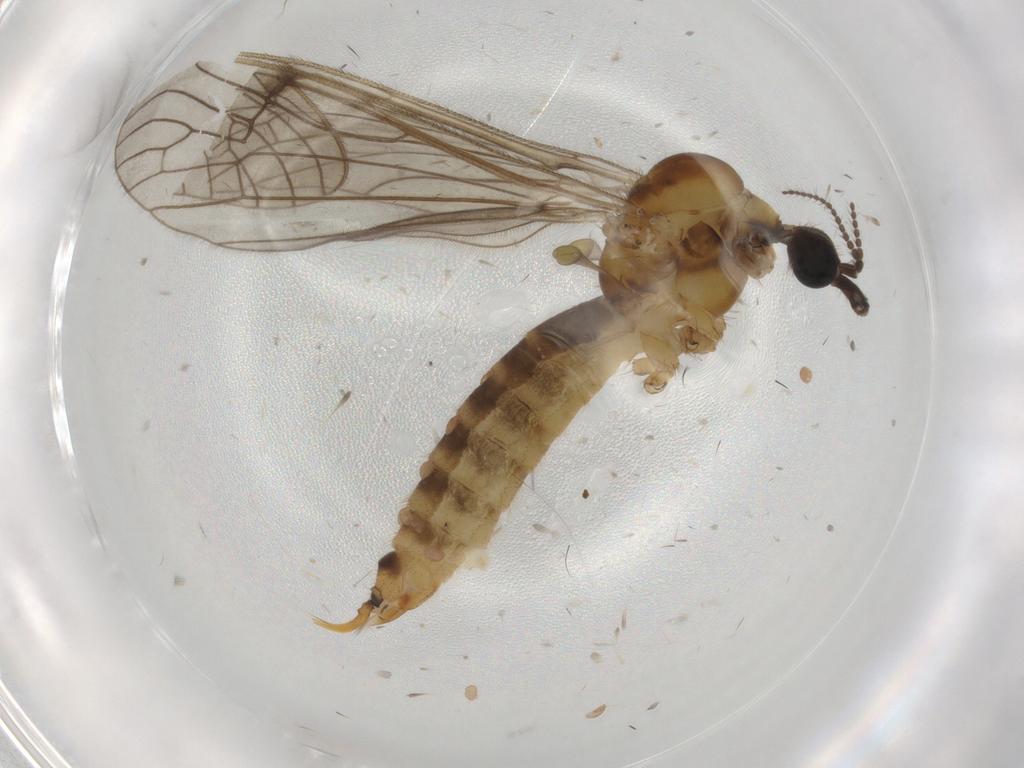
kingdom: Animalia
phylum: Arthropoda
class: Insecta
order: Diptera
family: Limoniidae
